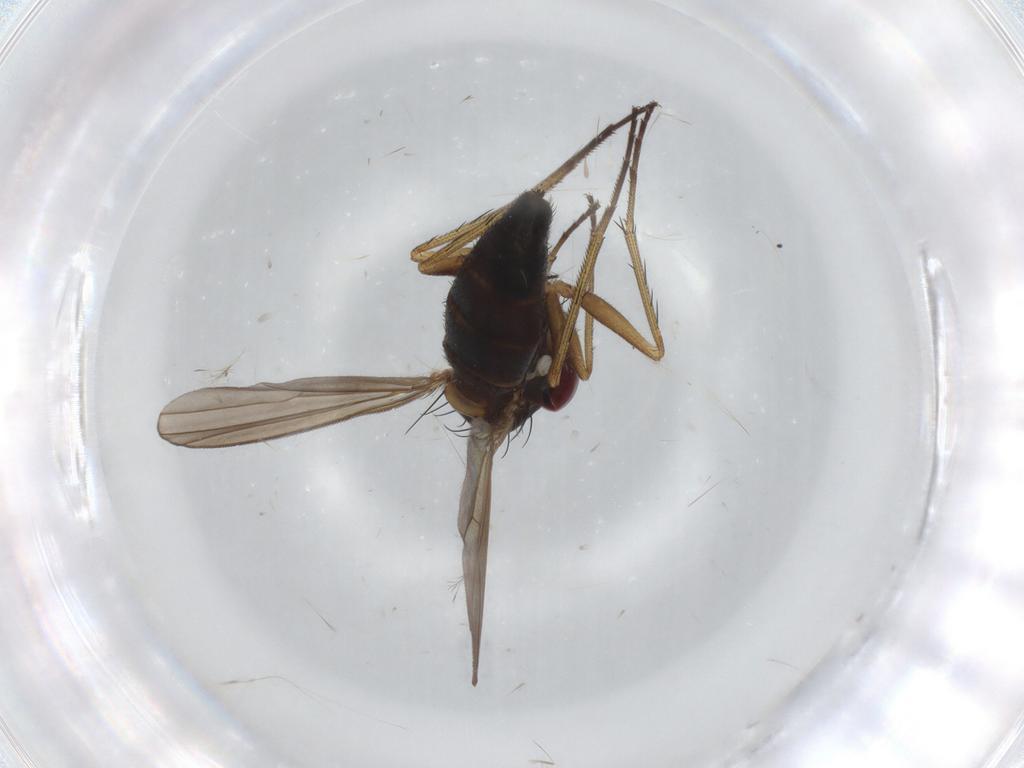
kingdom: Animalia
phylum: Arthropoda
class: Insecta
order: Diptera
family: Dolichopodidae
